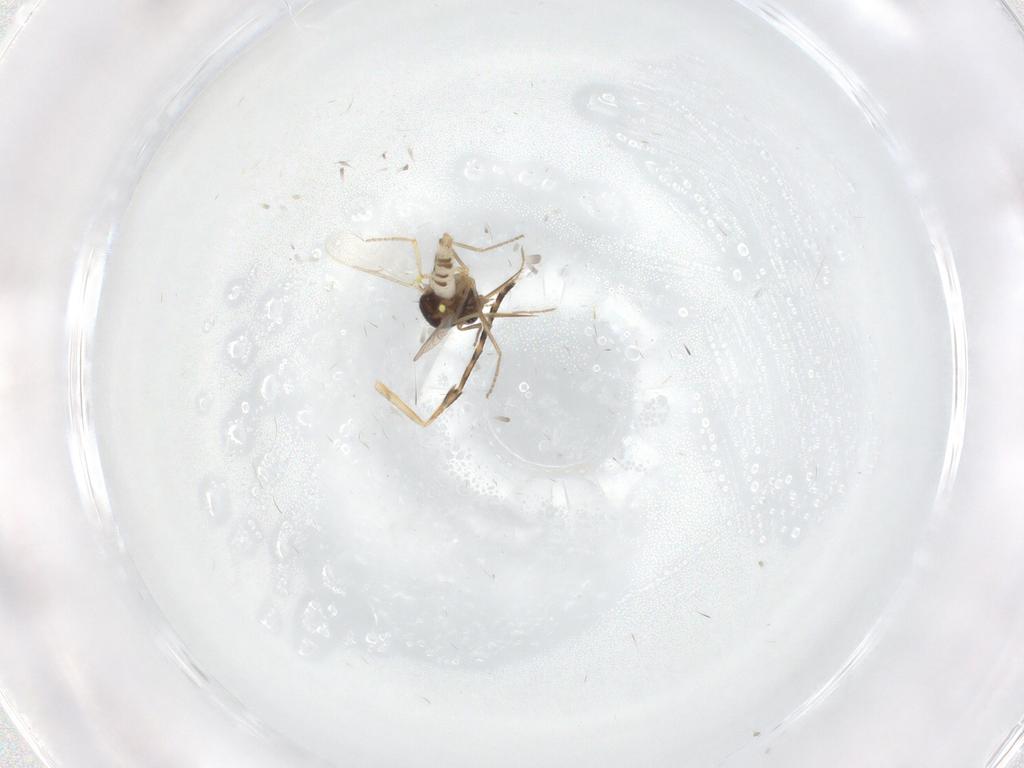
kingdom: Animalia
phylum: Arthropoda
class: Insecta
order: Diptera
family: Ceratopogonidae
